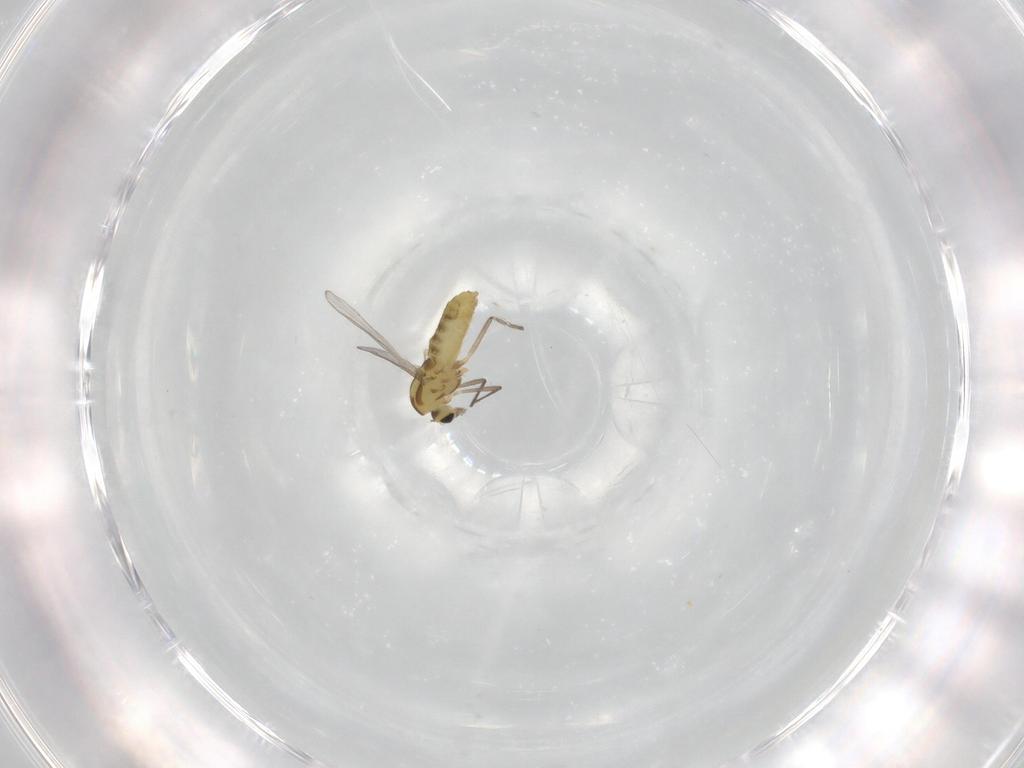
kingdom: Animalia
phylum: Arthropoda
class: Insecta
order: Diptera
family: Chironomidae
